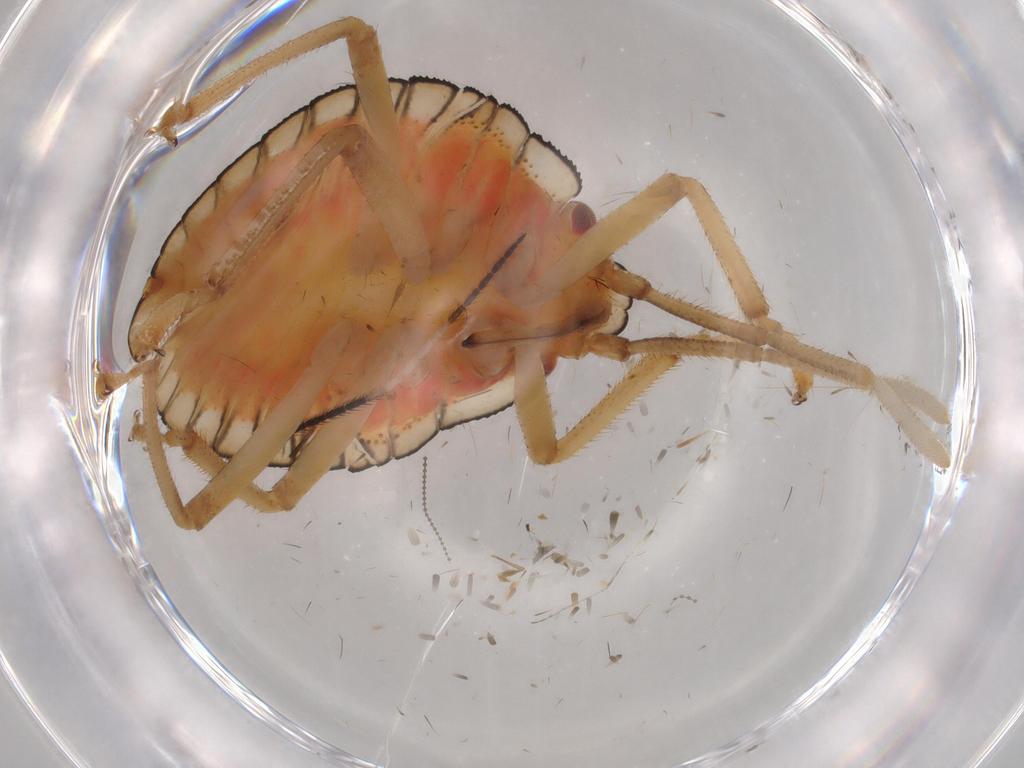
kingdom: Animalia
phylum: Arthropoda
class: Insecta
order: Hemiptera
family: Pentatomidae
